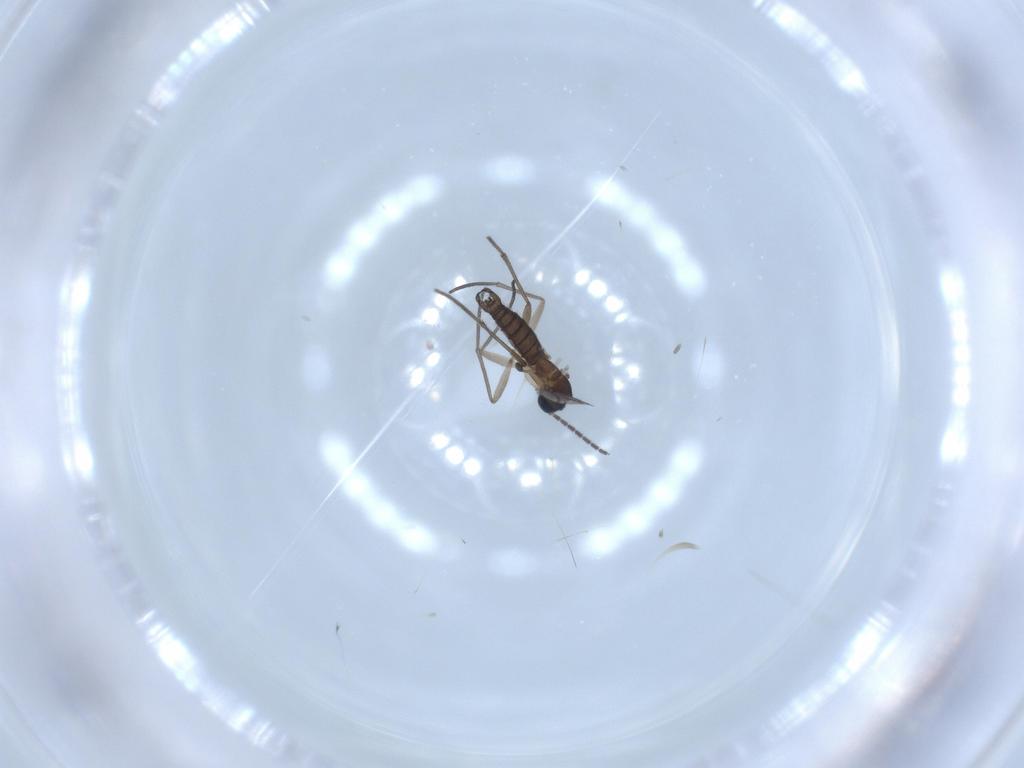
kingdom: Animalia
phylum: Arthropoda
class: Insecta
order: Diptera
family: Sciaridae
